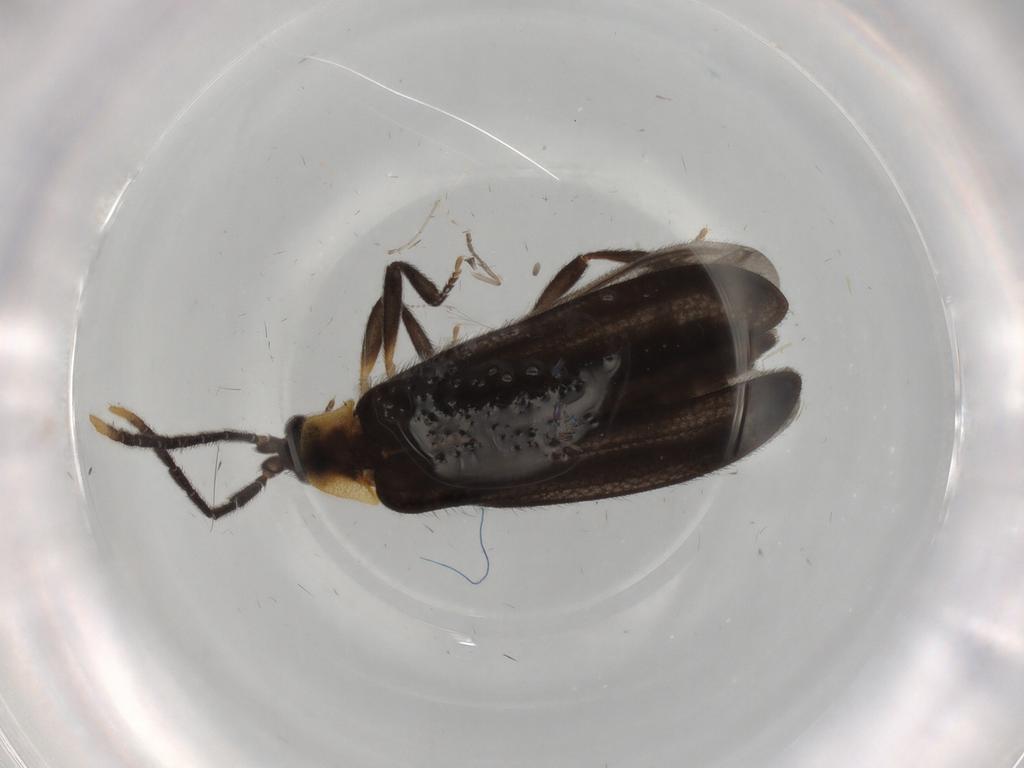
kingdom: Animalia
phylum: Arthropoda
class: Insecta
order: Coleoptera
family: Lycidae
